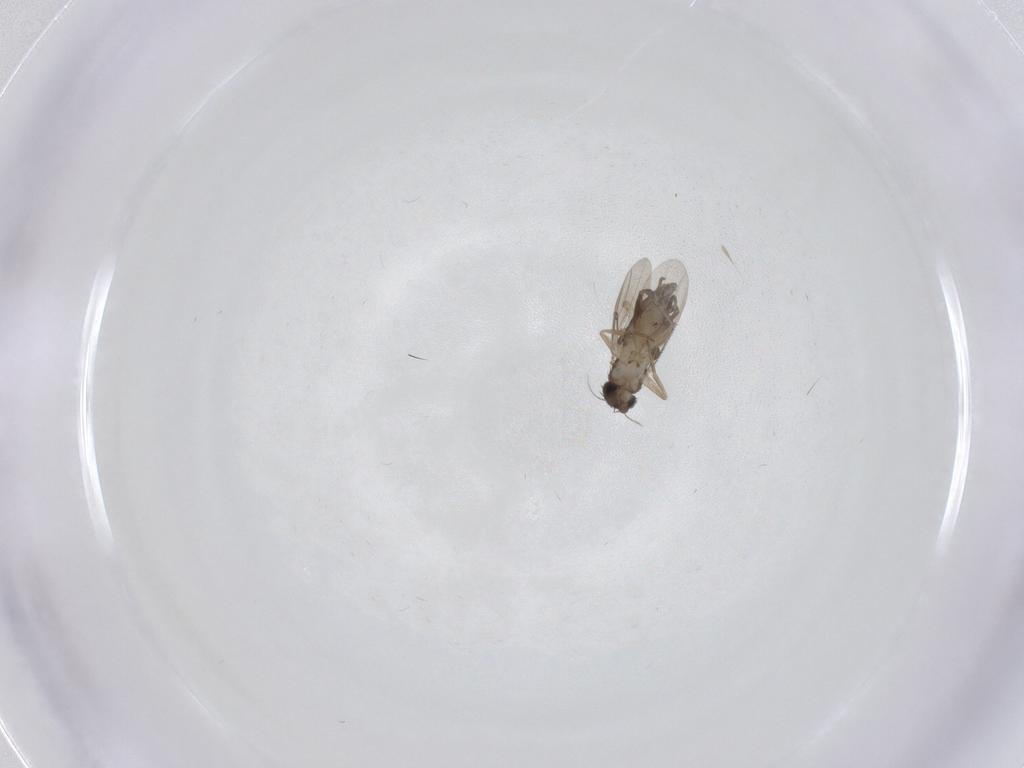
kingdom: Animalia
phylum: Arthropoda
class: Insecta
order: Diptera
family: Phoridae
